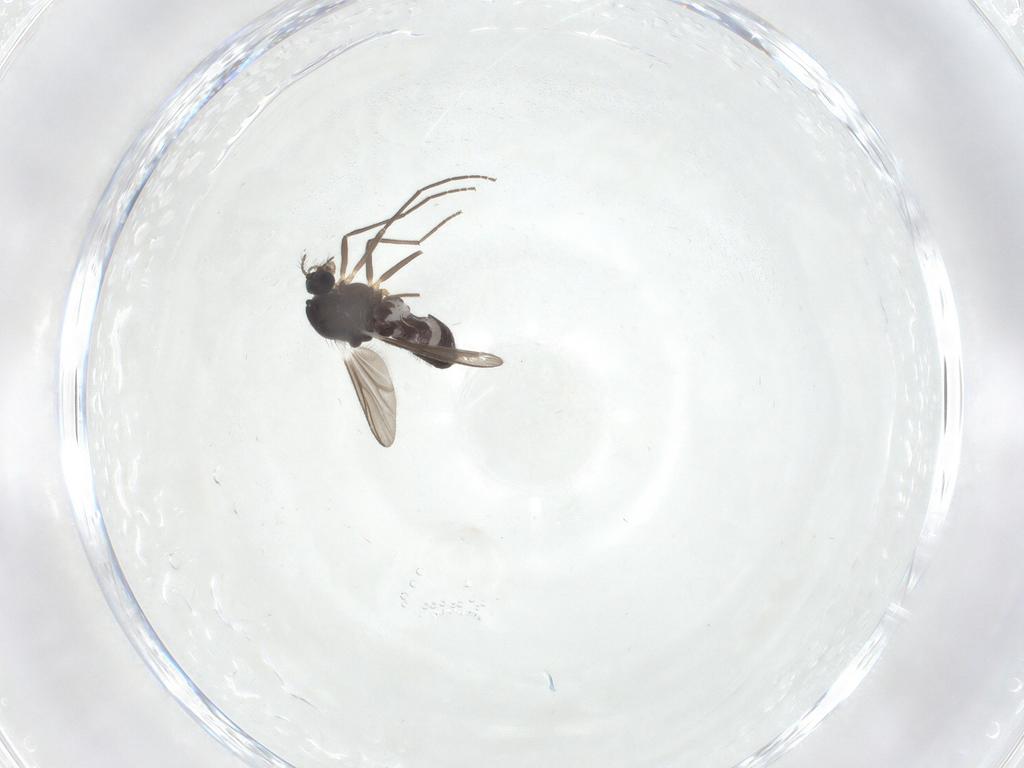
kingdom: Animalia
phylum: Arthropoda
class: Insecta
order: Diptera
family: Chironomidae
